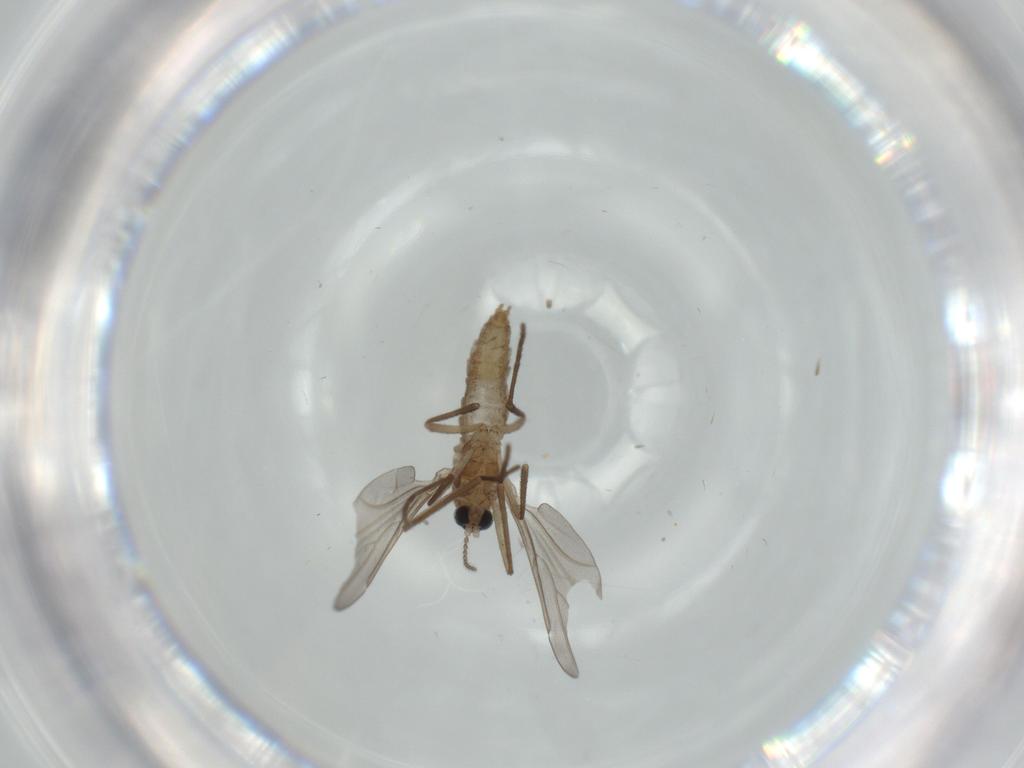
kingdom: Animalia
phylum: Arthropoda
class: Insecta
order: Diptera
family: Cecidomyiidae
